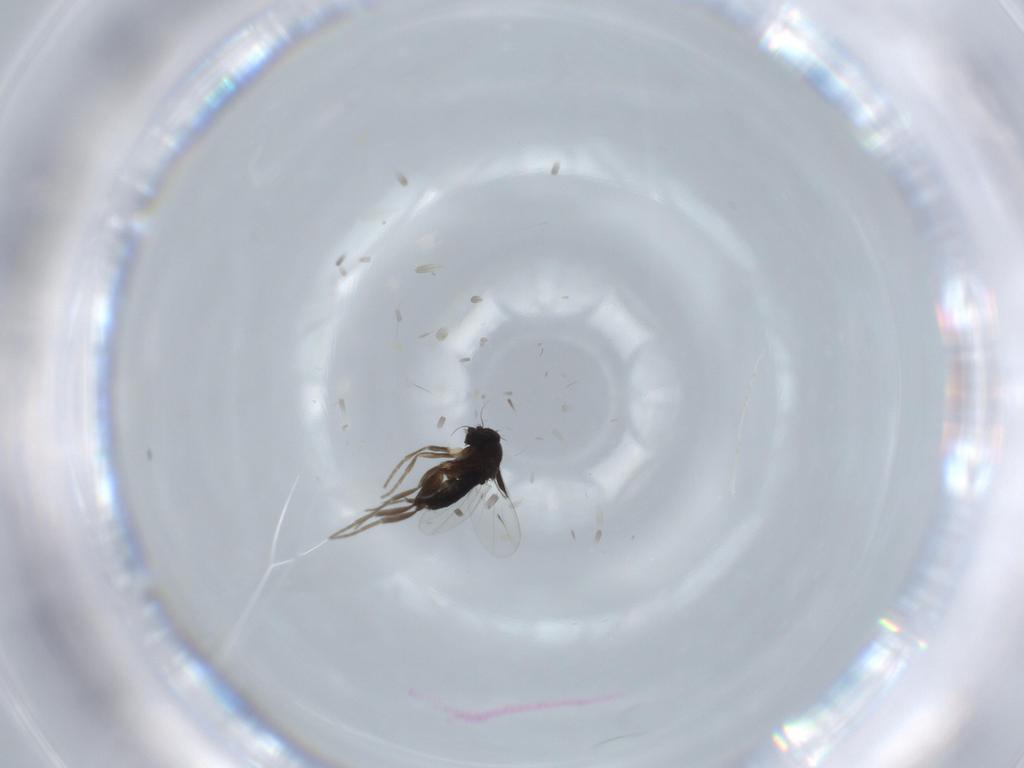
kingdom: Animalia
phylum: Arthropoda
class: Insecta
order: Diptera
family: Phoridae
